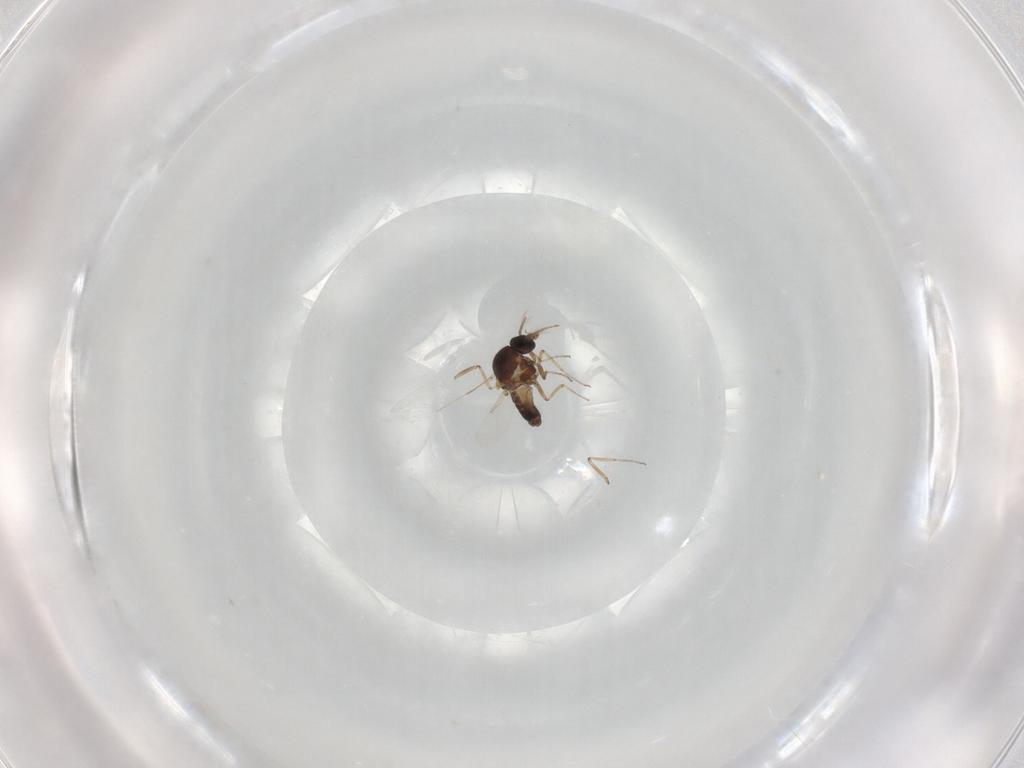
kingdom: Animalia
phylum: Arthropoda
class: Insecta
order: Diptera
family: Ceratopogonidae
